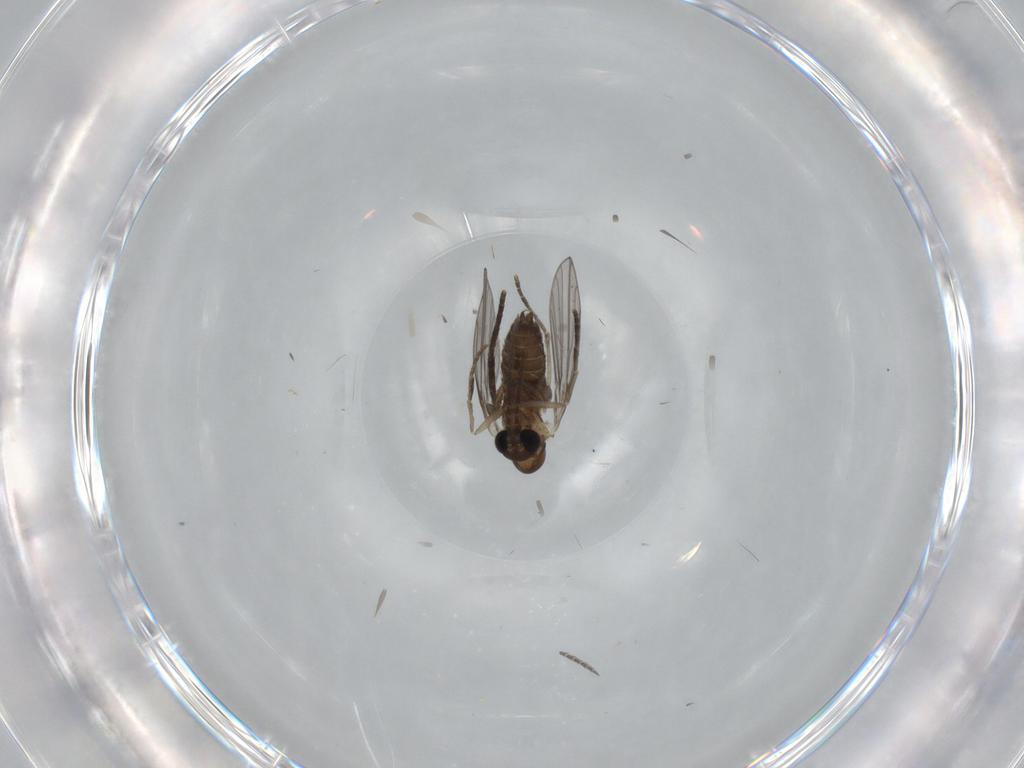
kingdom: Animalia
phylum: Arthropoda
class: Insecta
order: Diptera
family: Psychodidae
